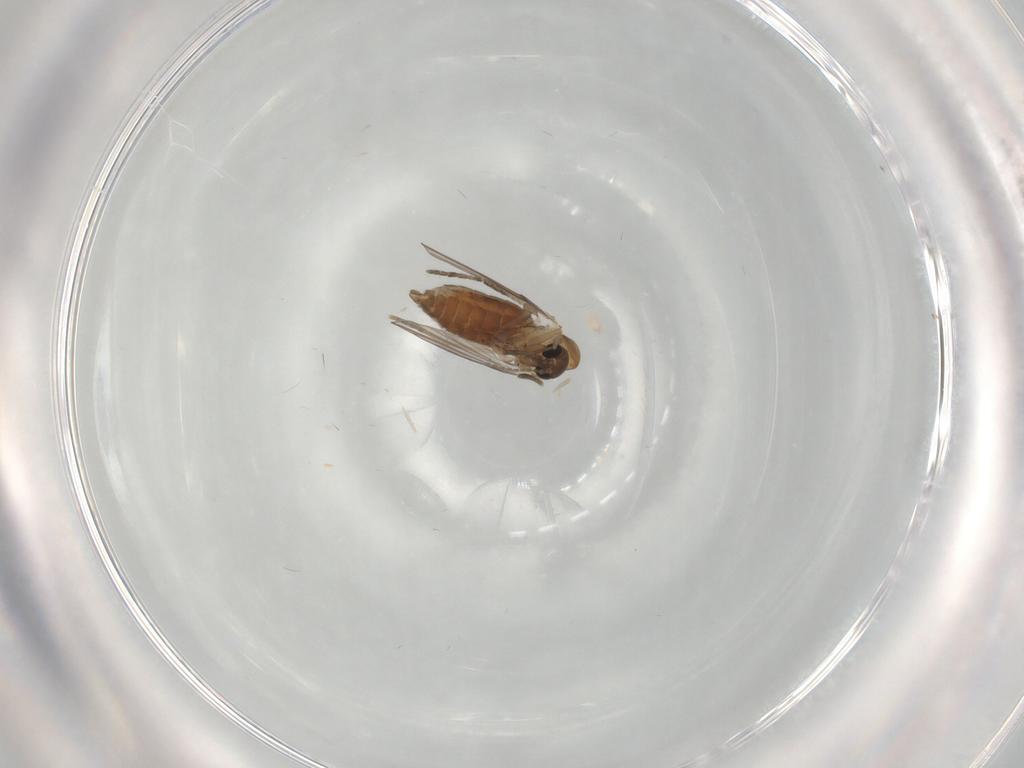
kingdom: Animalia
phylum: Arthropoda
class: Insecta
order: Diptera
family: Psychodidae
